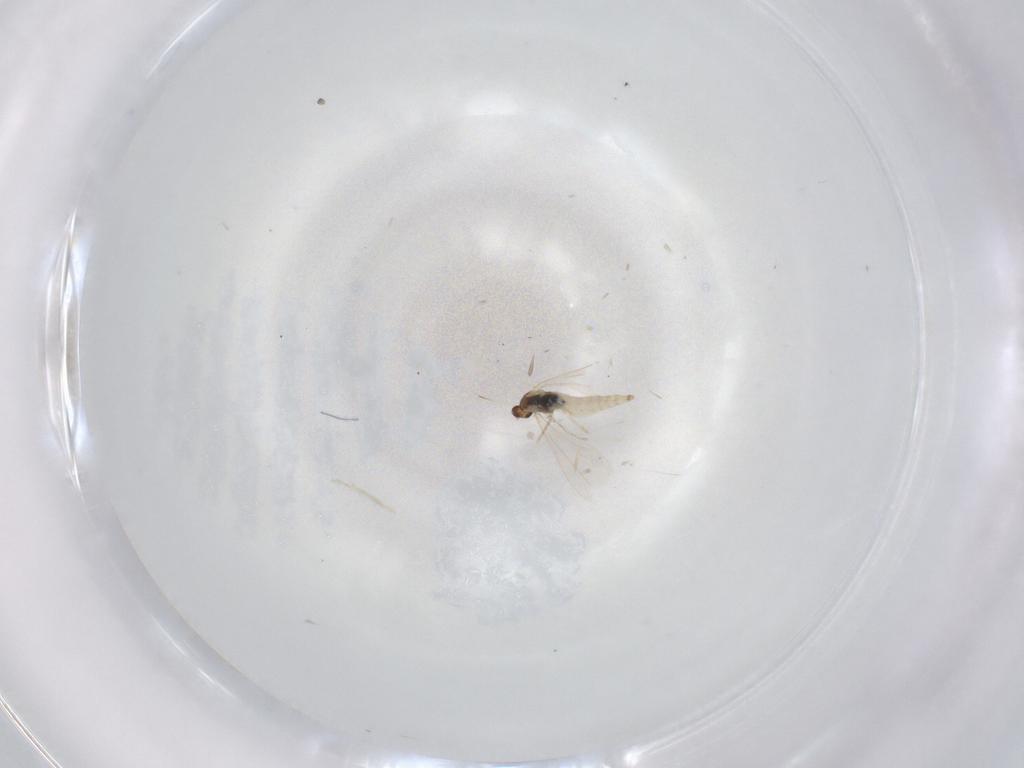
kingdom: Animalia
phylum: Arthropoda
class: Insecta
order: Diptera
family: Cecidomyiidae
